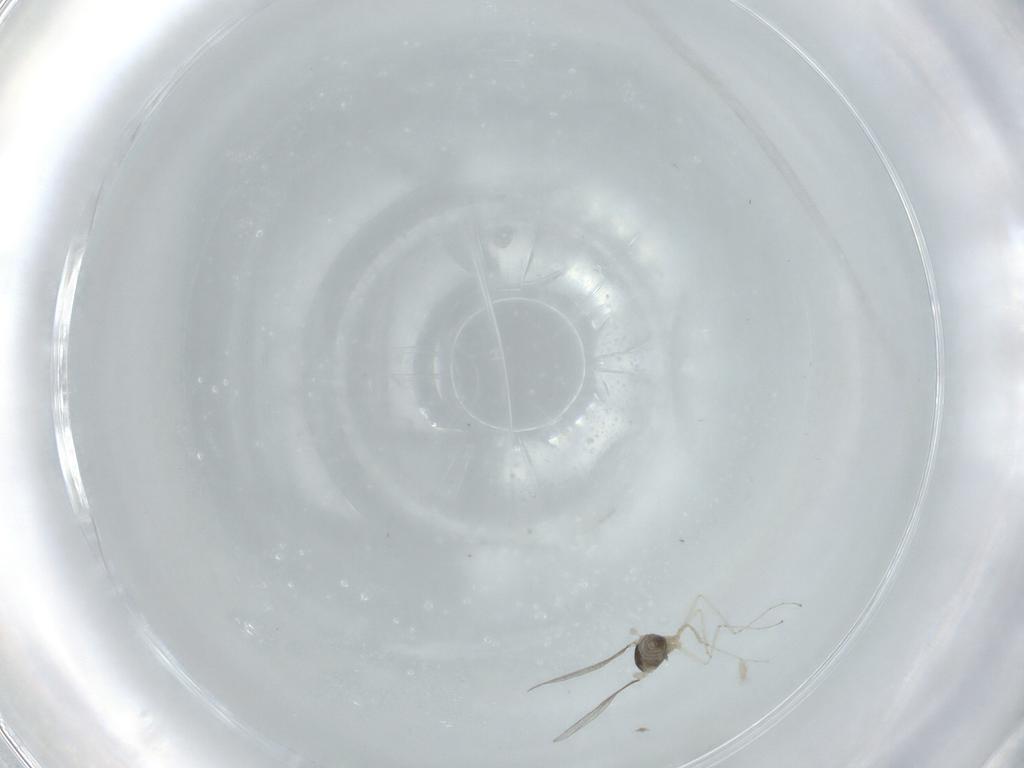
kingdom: Animalia
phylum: Arthropoda
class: Insecta
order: Diptera
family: Cecidomyiidae
